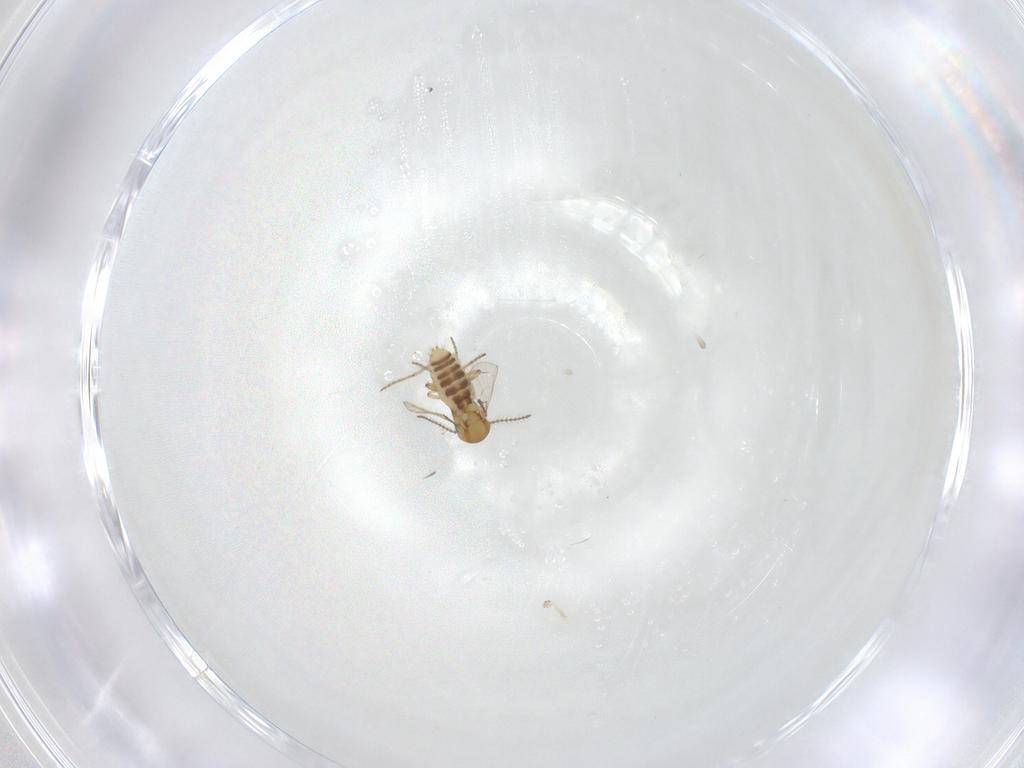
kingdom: Animalia
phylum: Arthropoda
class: Insecta
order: Diptera
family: Ceratopogonidae
